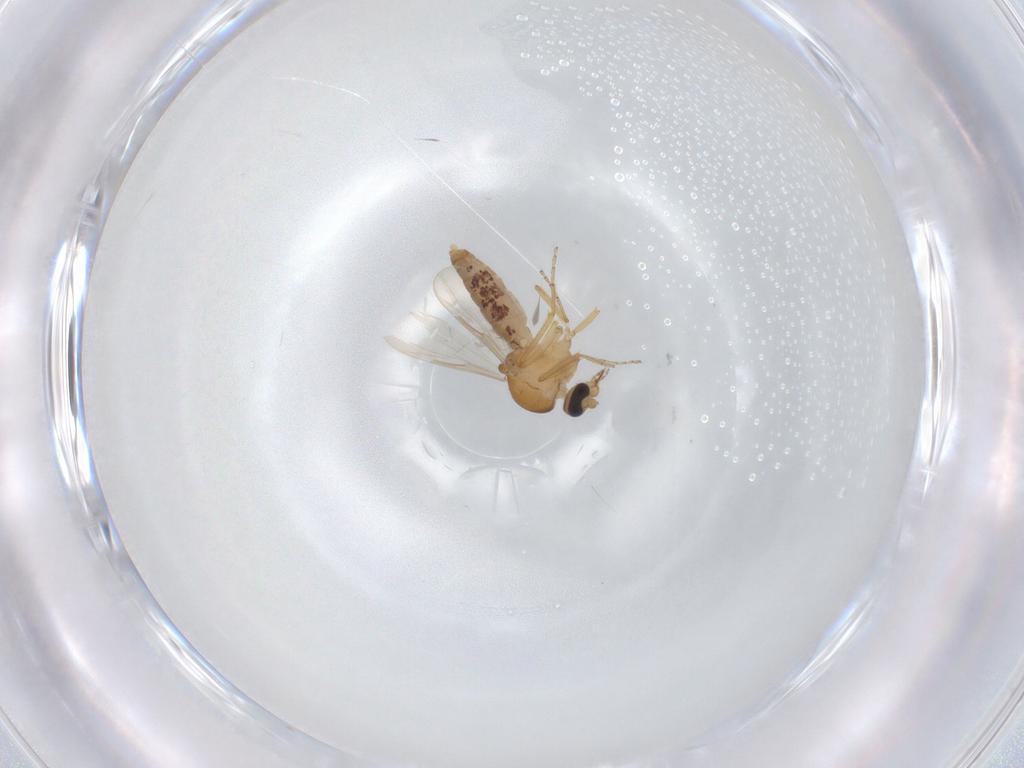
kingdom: Animalia
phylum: Arthropoda
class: Insecta
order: Diptera
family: Ceratopogonidae
